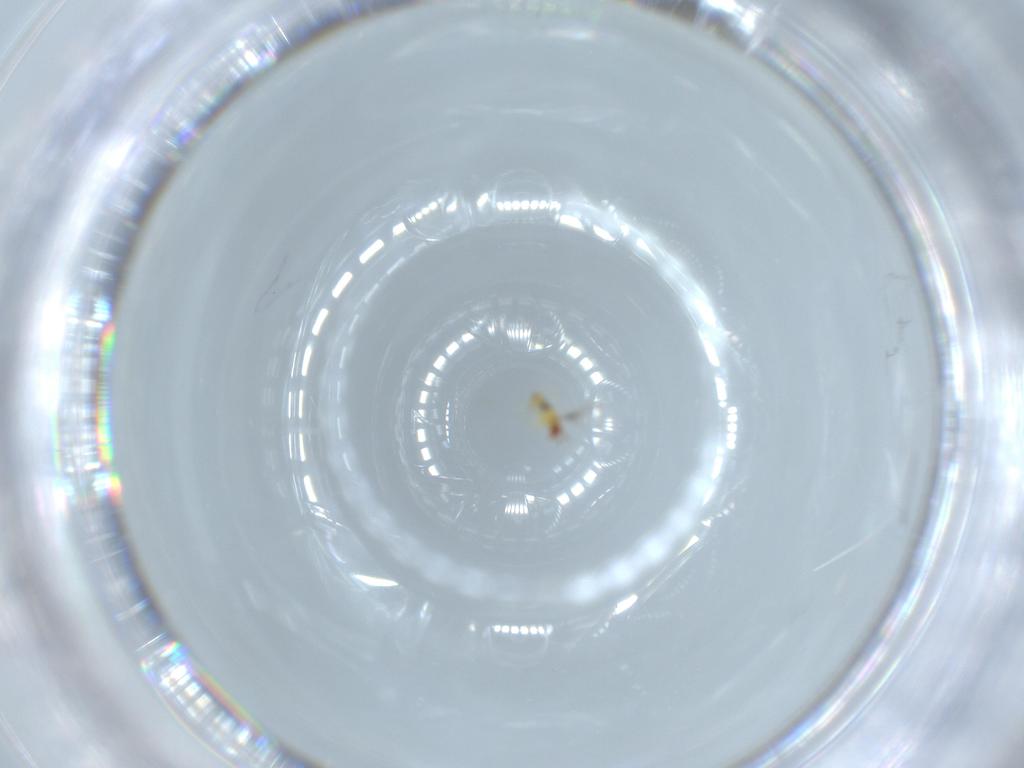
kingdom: Animalia
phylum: Arthropoda
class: Insecta
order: Hymenoptera
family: Trichogrammatidae
